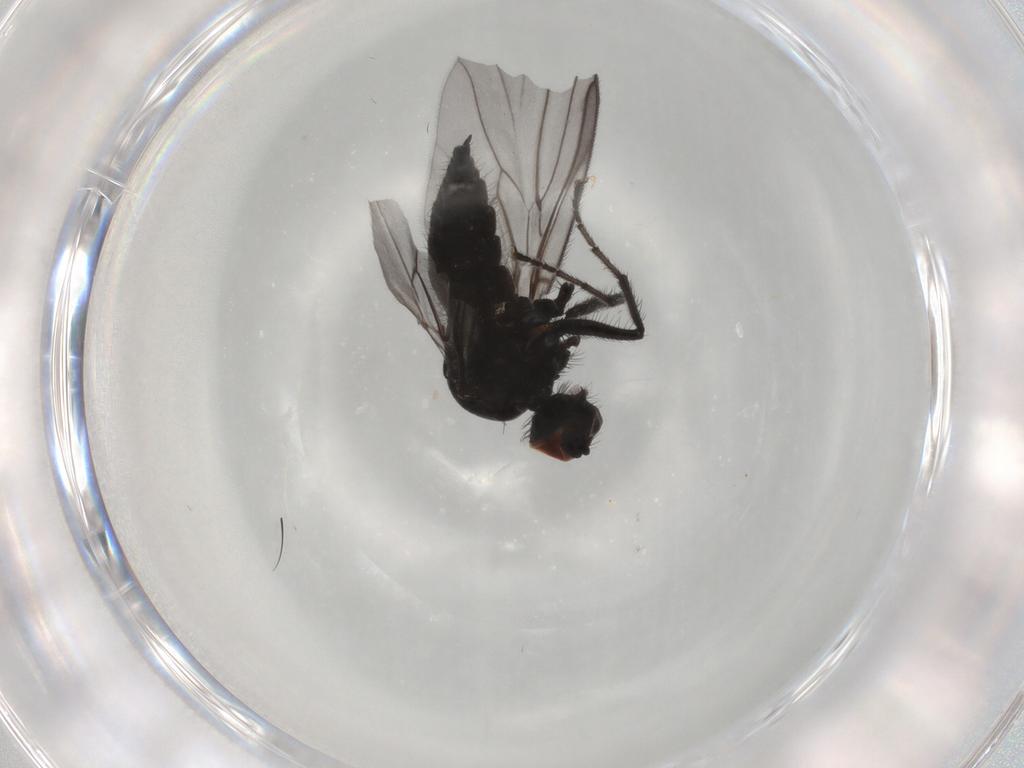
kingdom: Animalia
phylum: Arthropoda
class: Insecta
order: Diptera
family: Hybotidae
